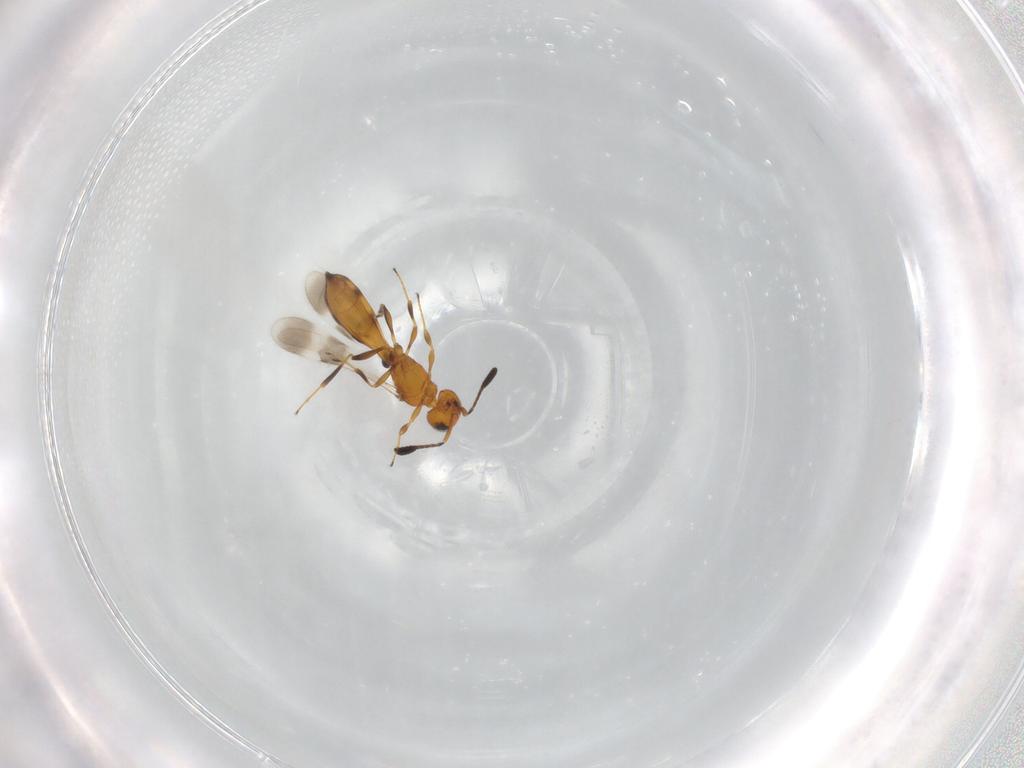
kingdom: Animalia
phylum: Arthropoda
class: Insecta
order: Hymenoptera
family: Scelionidae
